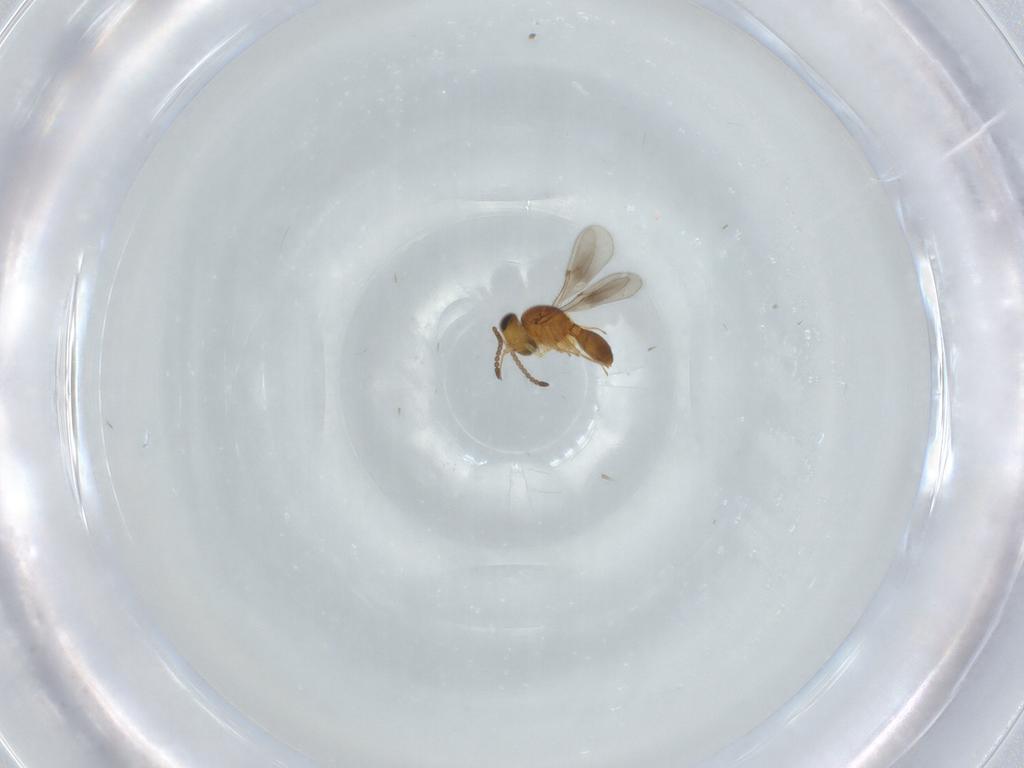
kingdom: Animalia
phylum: Arthropoda
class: Insecta
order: Hymenoptera
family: Scelionidae
